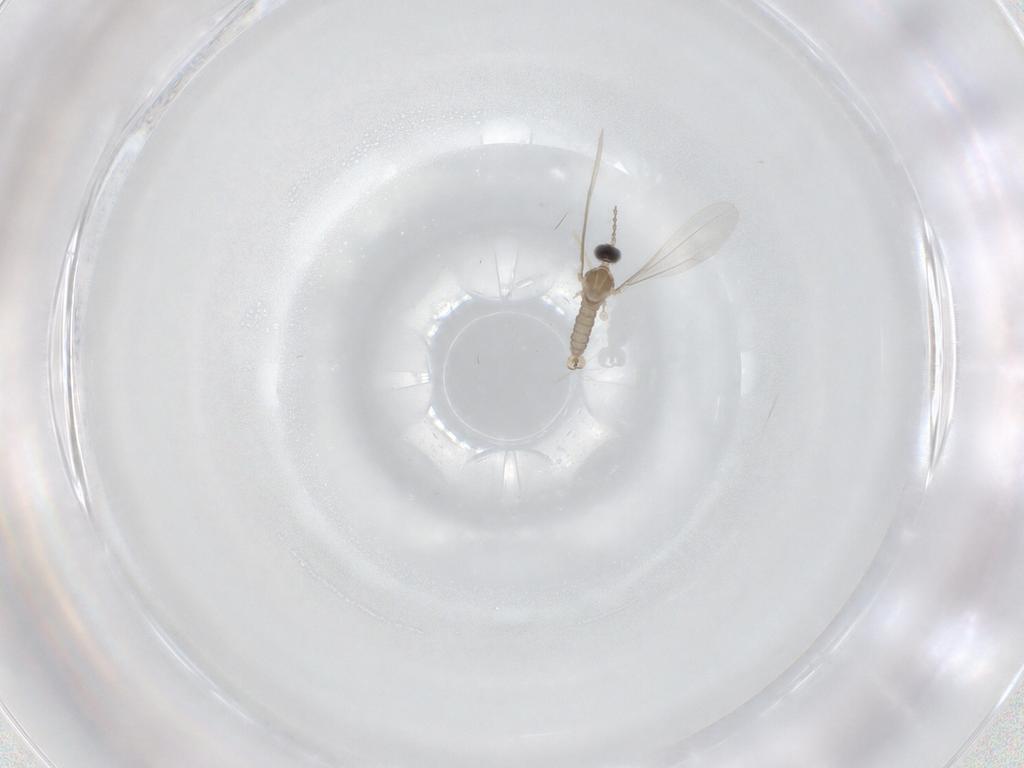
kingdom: Animalia
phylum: Arthropoda
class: Insecta
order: Diptera
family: Cecidomyiidae
